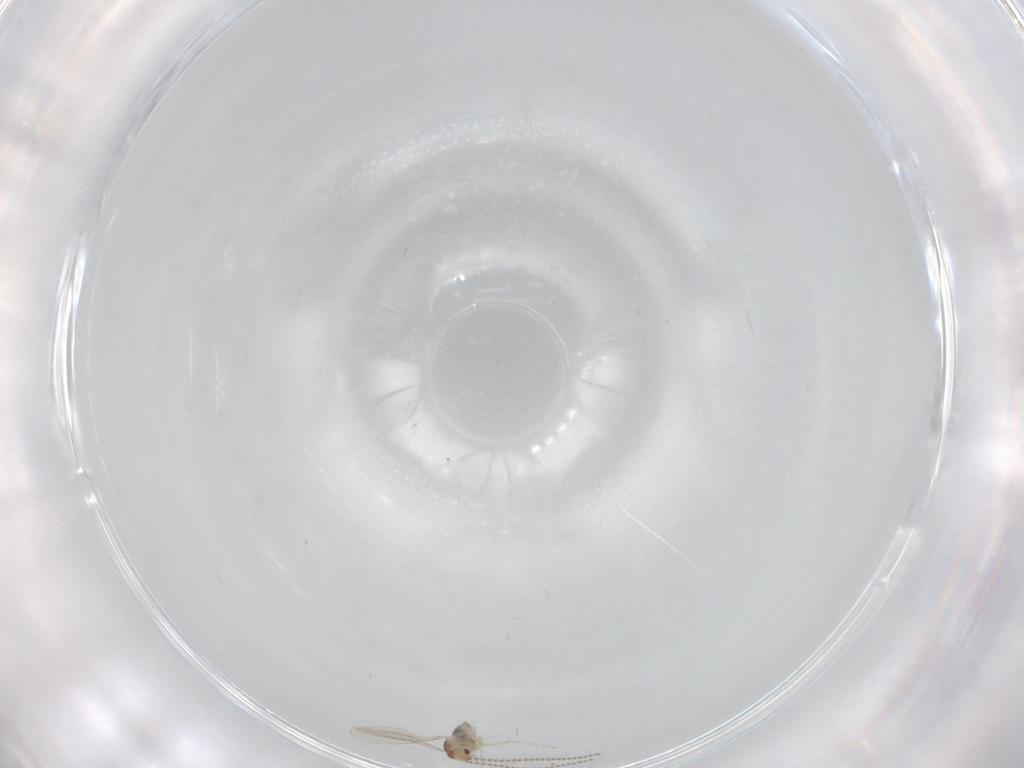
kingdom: Animalia
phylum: Arthropoda
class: Insecta
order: Diptera
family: Cecidomyiidae
